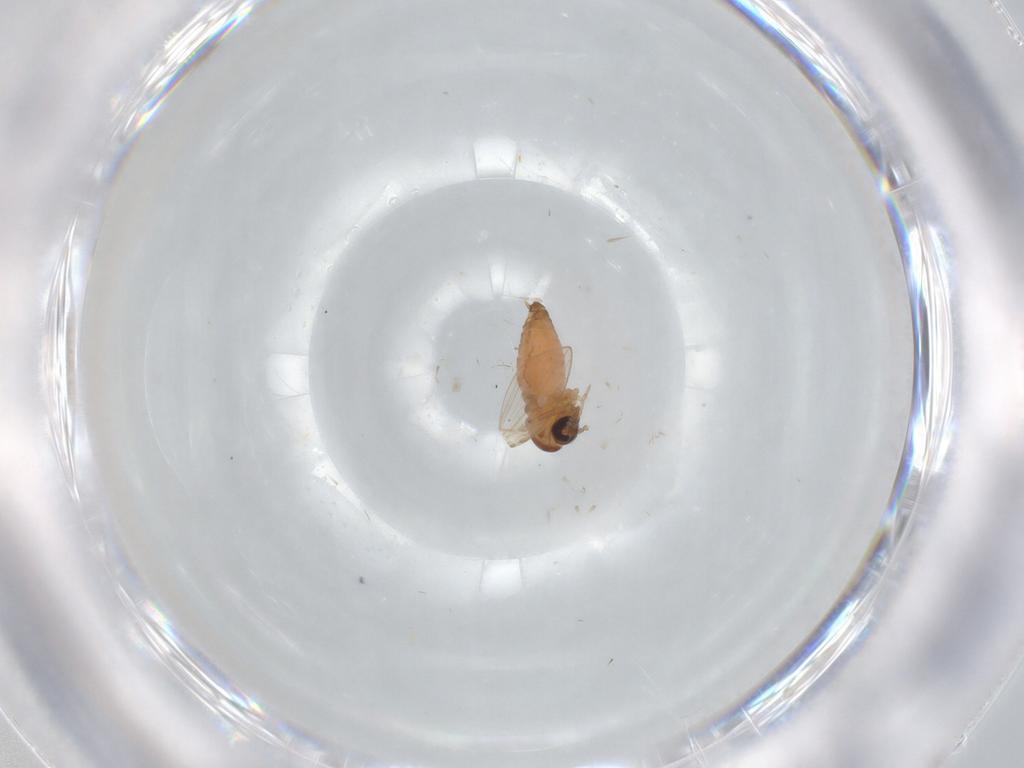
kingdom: Animalia
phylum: Arthropoda
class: Insecta
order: Diptera
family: Psychodidae
